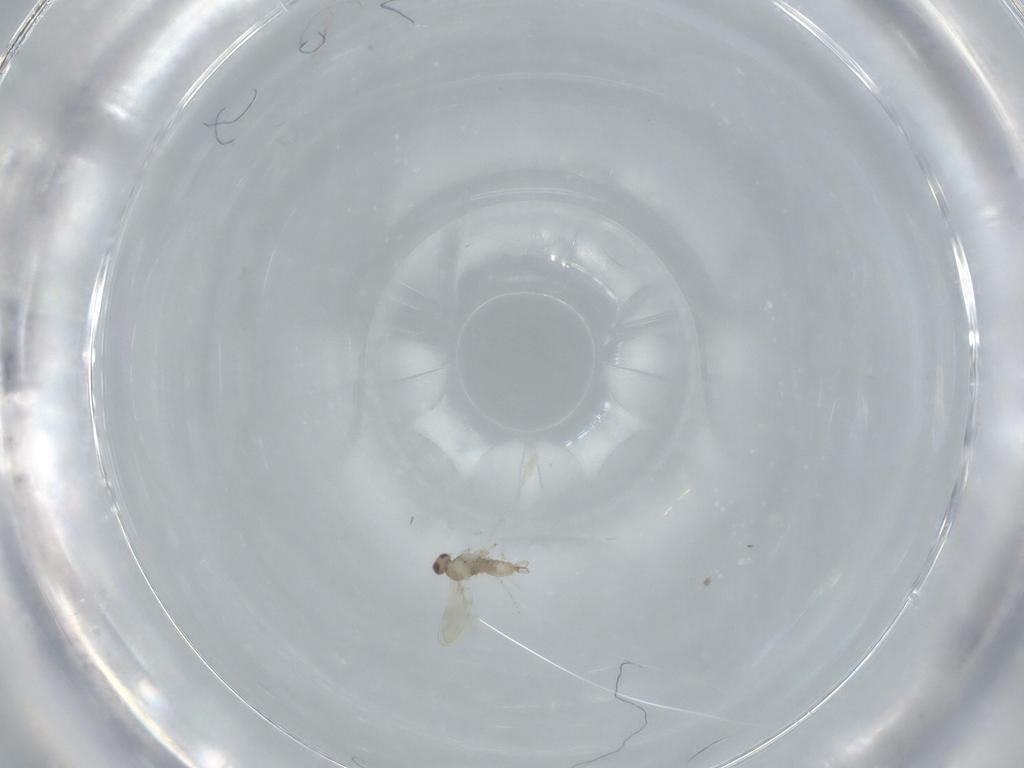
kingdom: Animalia
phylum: Arthropoda
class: Insecta
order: Diptera
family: Cecidomyiidae
